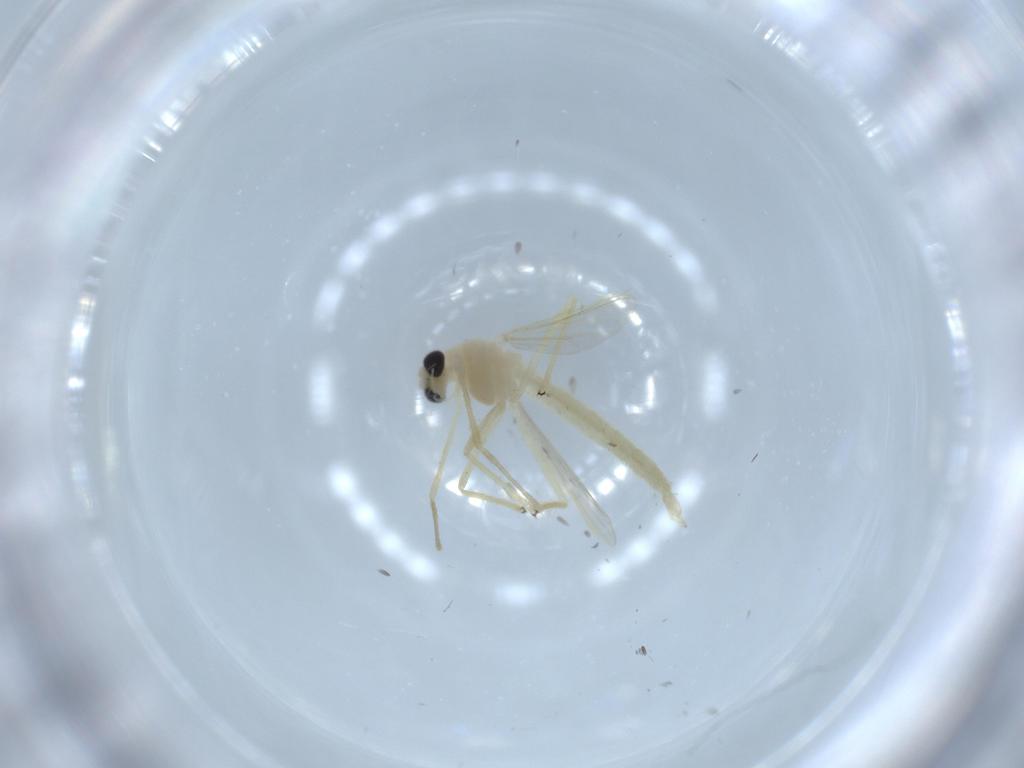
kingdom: Animalia
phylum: Arthropoda
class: Insecta
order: Diptera
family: Chironomidae
